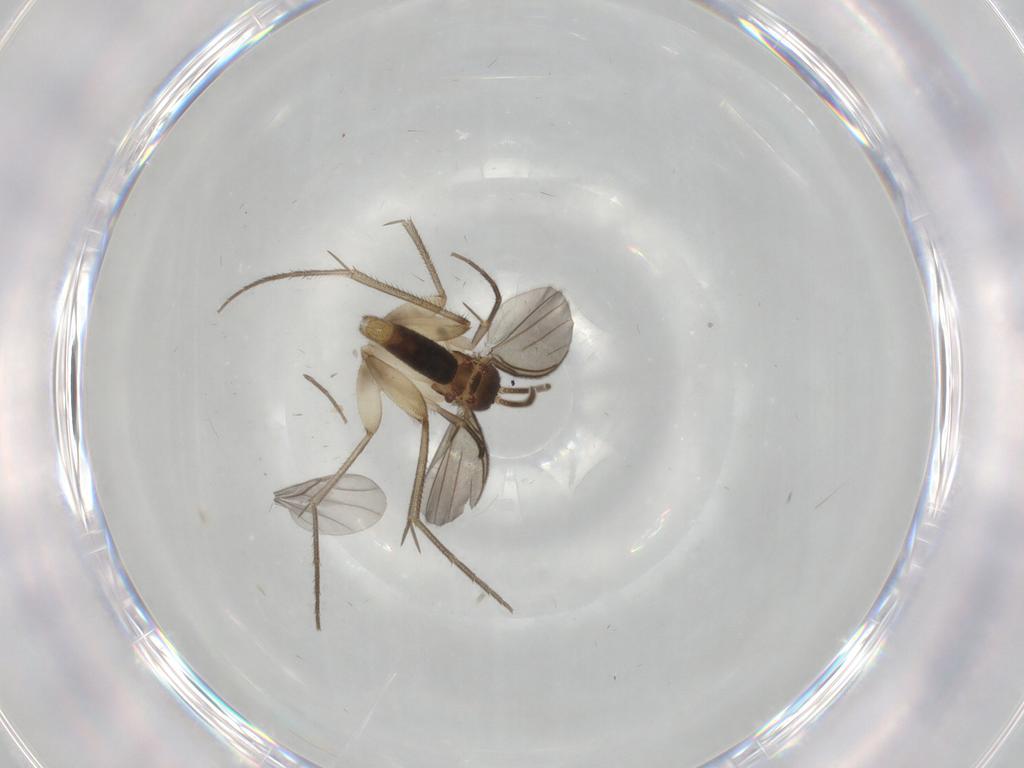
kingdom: Animalia
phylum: Arthropoda
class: Insecta
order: Diptera
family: Mycetophilidae
